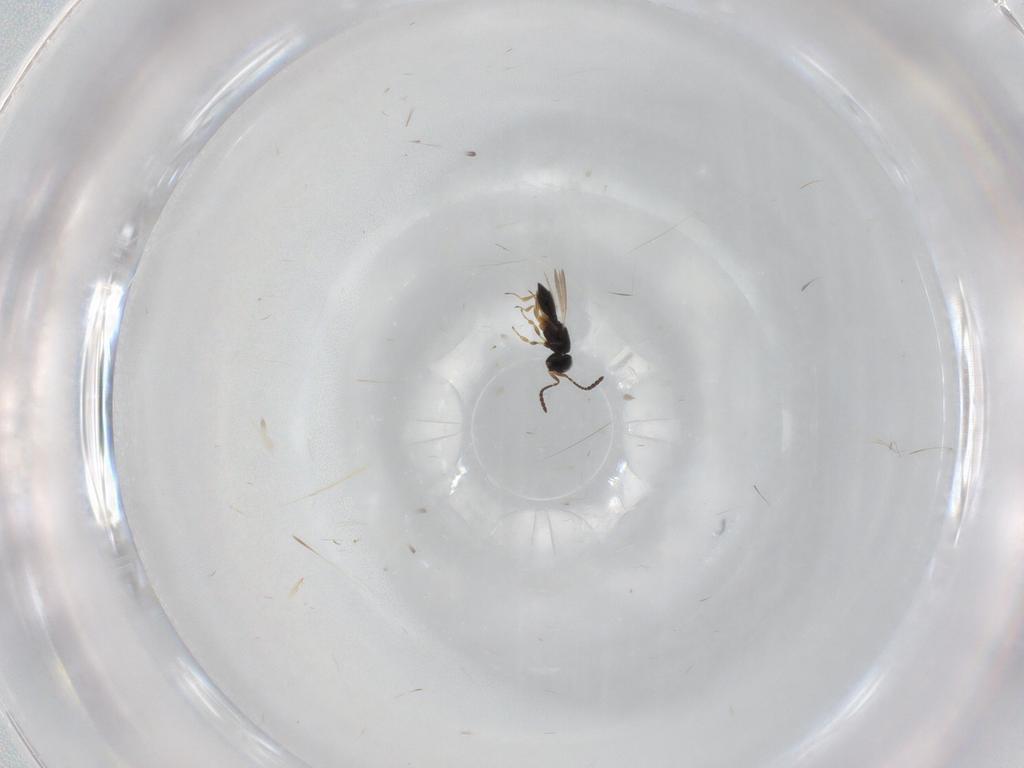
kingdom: Animalia
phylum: Arthropoda
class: Insecta
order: Hymenoptera
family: Scelionidae
